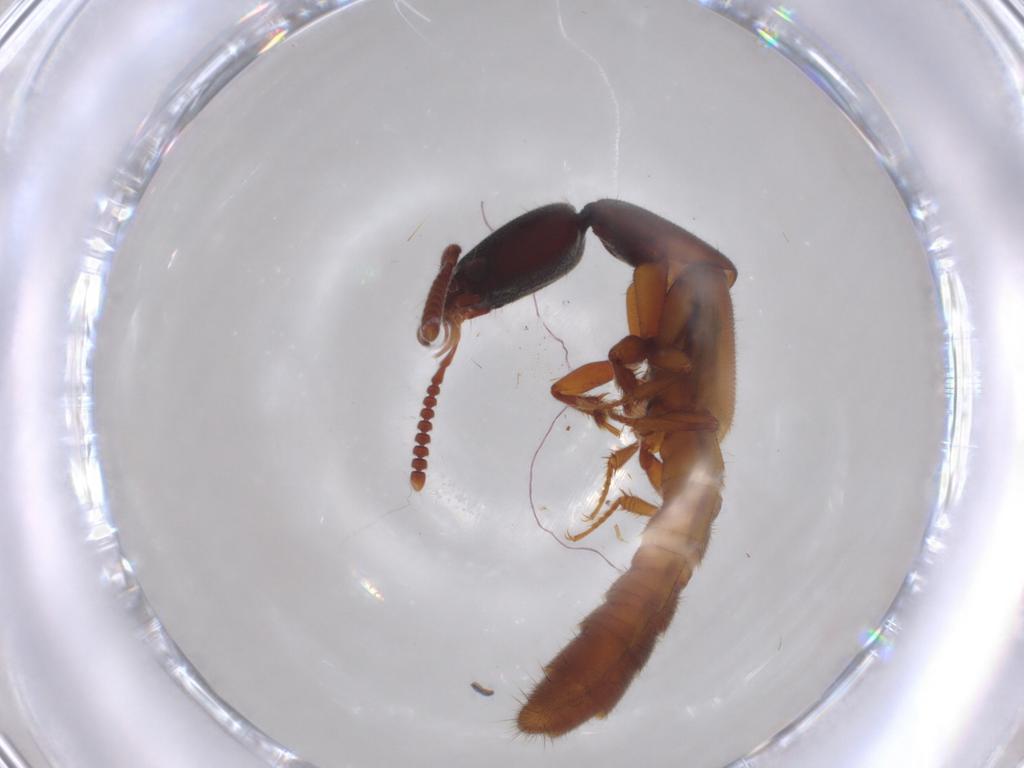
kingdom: Animalia
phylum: Arthropoda
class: Insecta
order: Coleoptera
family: Staphylinidae
